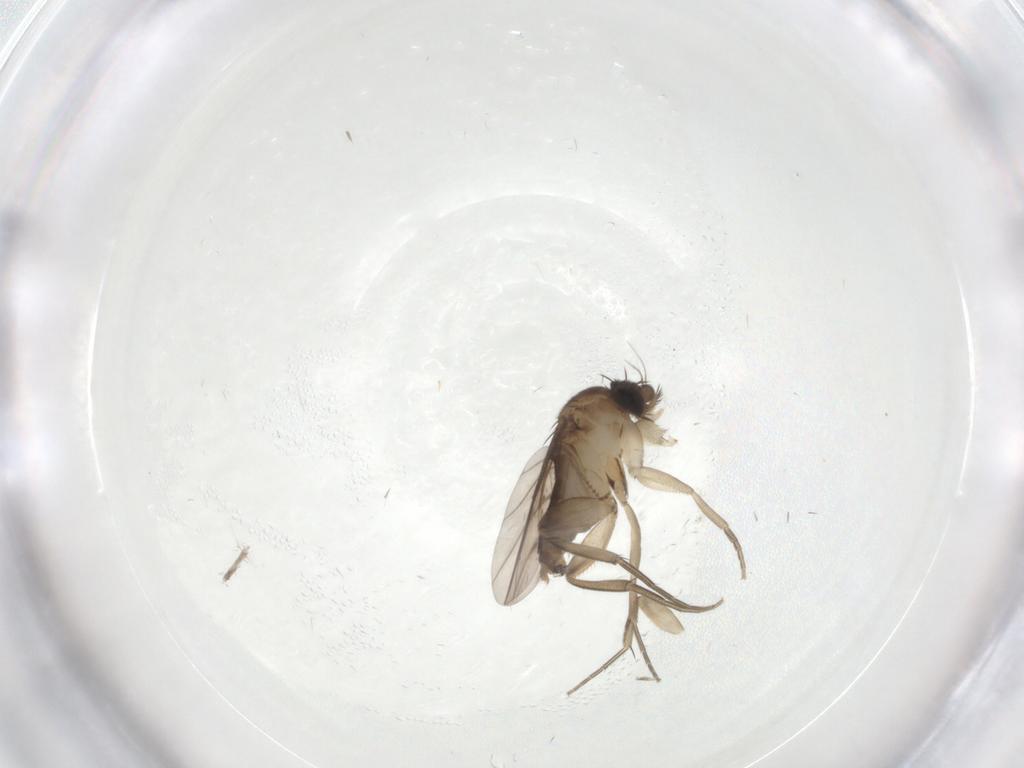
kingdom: Animalia
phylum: Arthropoda
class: Insecta
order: Diptera
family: Phoridae
